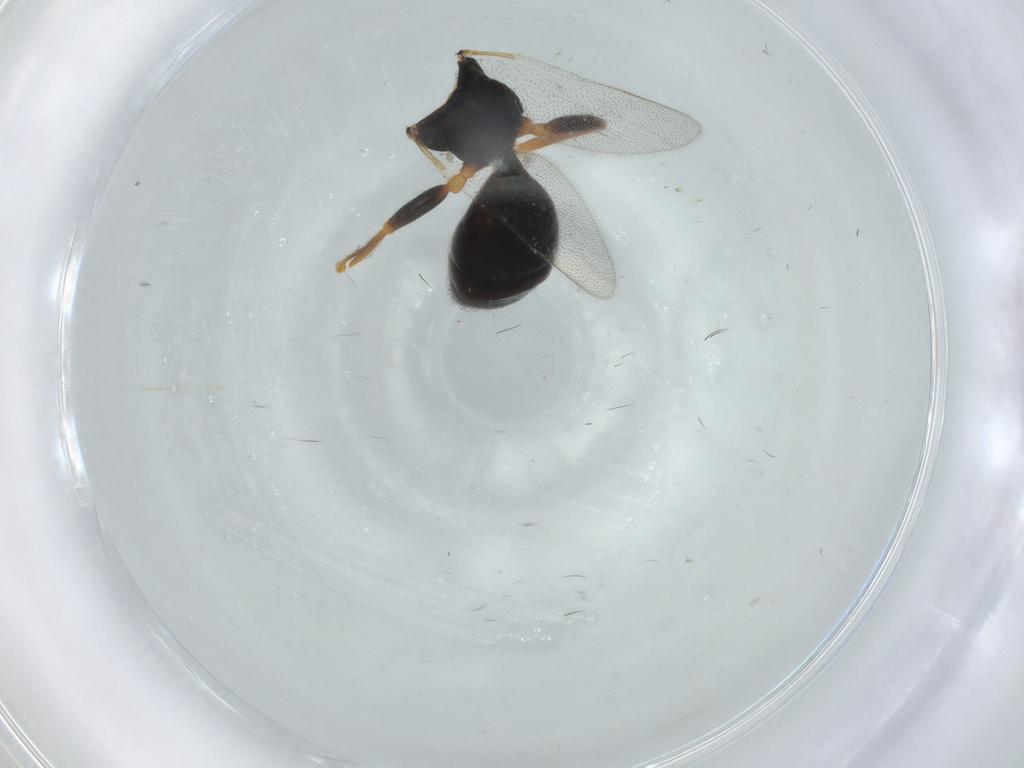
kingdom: Animalia
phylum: Arthropoda
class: Insecta
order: Hymenoptera
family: Bethylidae
